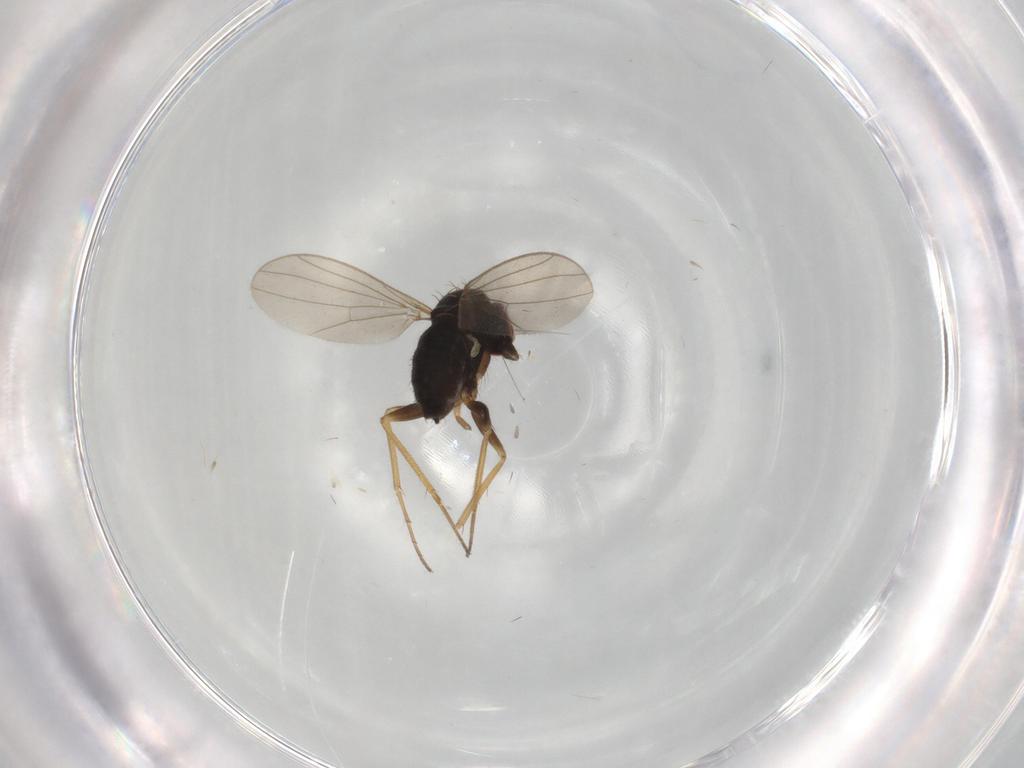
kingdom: Animalia
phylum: Arthropoda
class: Insecta
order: Diptera
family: Dolichopodidae
